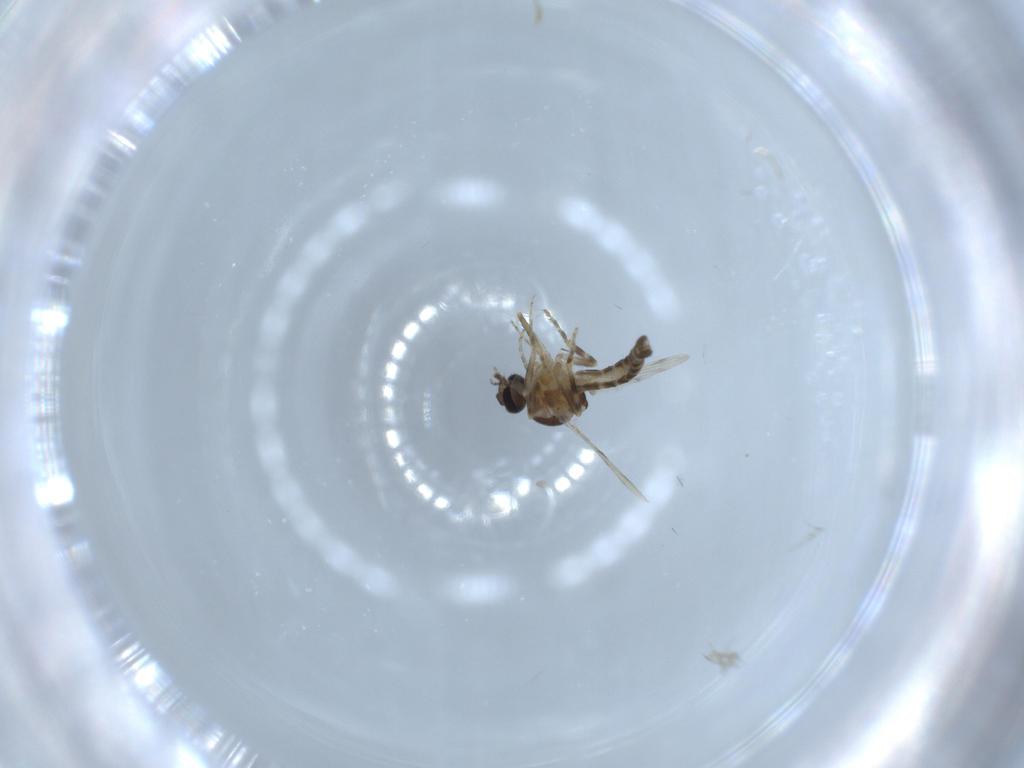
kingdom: Animalia
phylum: Arthropoda
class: Insecta
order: Diptera
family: Ceratopogonidae
